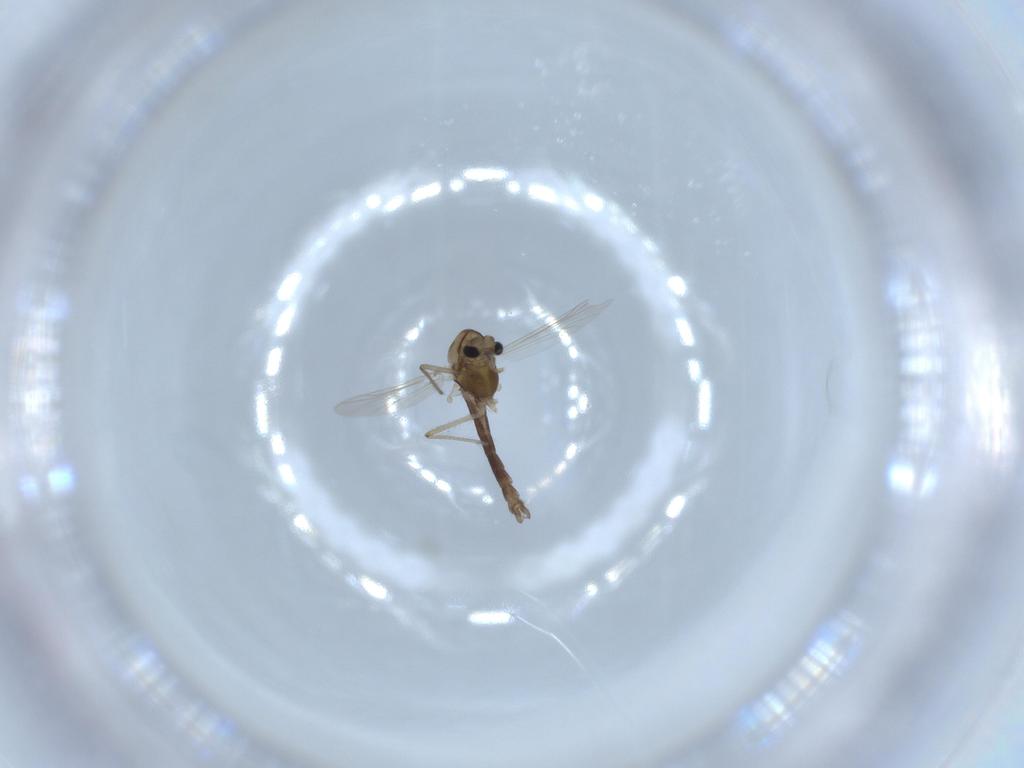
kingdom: Animalia
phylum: Arthropoda
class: Insecta
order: Diptera
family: Chironomidae
